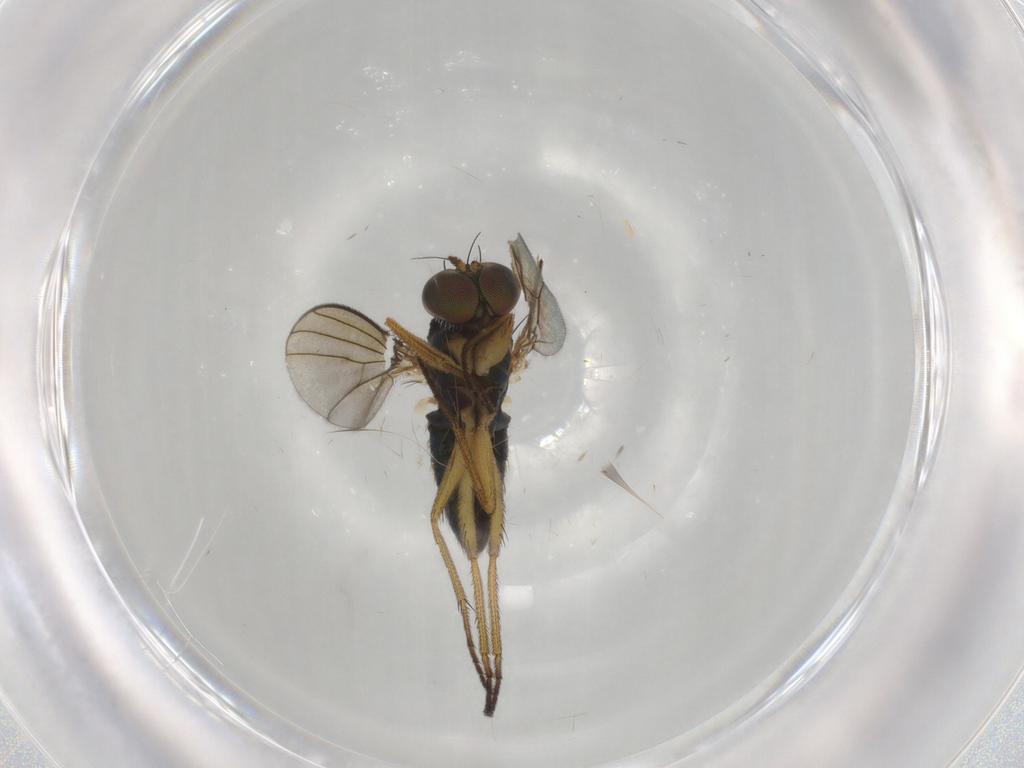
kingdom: Animalia
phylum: Arthropoda
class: Insecta
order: Diptera
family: Dolichopodidae
